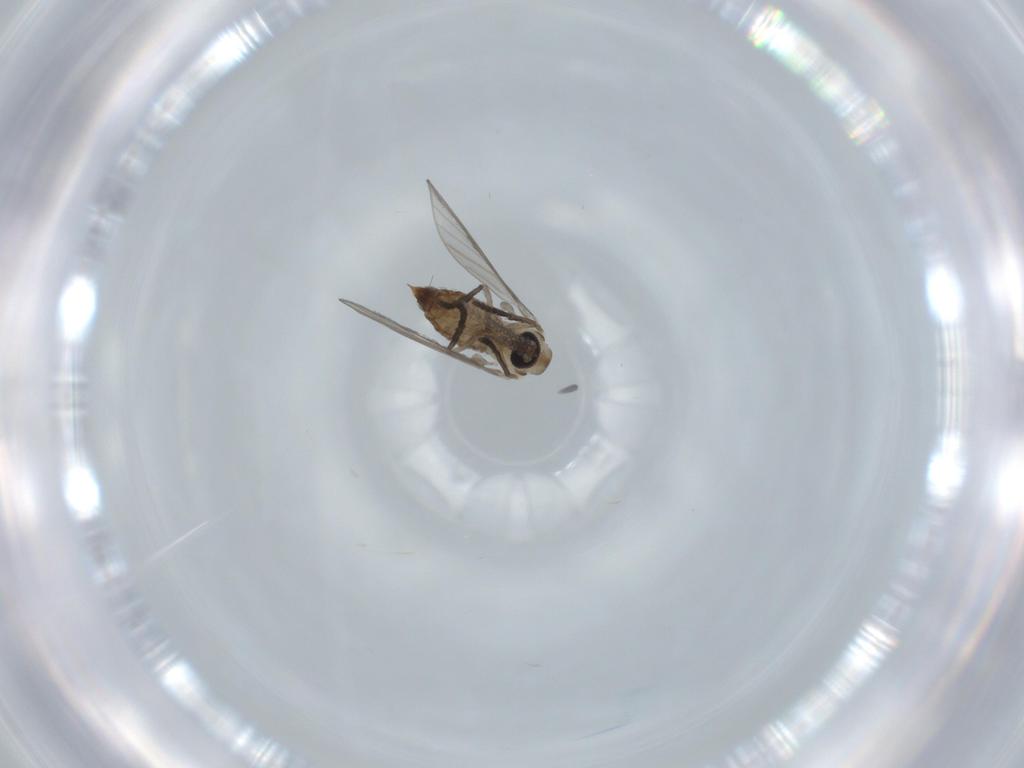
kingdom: Animalia
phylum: Arthropoda
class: Insecta
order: Diptera
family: Psychodidae
